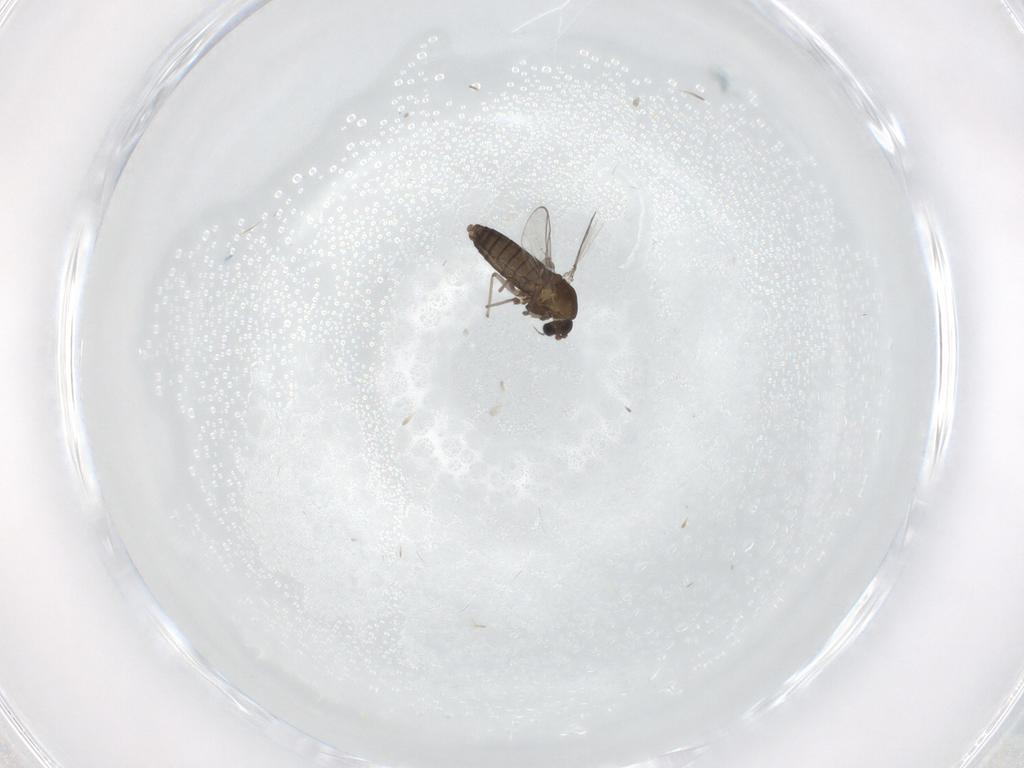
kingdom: Animalia
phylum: Arthropoda
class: Insecta
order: Diptera
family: Chironomidae
